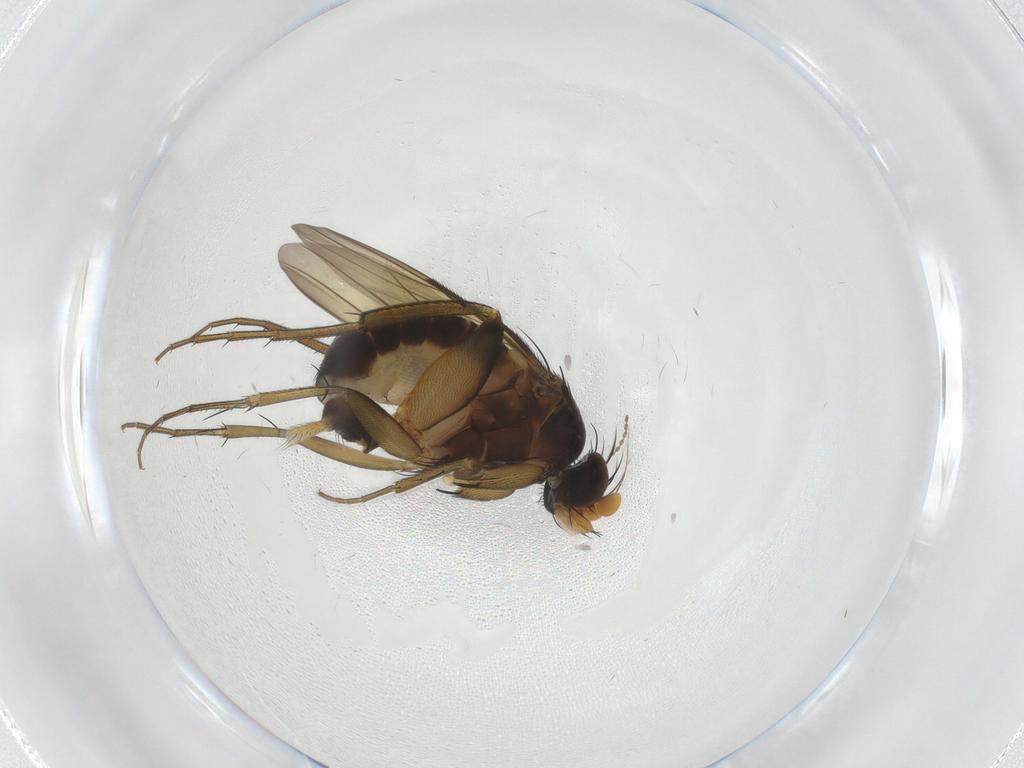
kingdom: Animalia
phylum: Arthropoda
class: Insecta
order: Diptera
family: Phoridae
